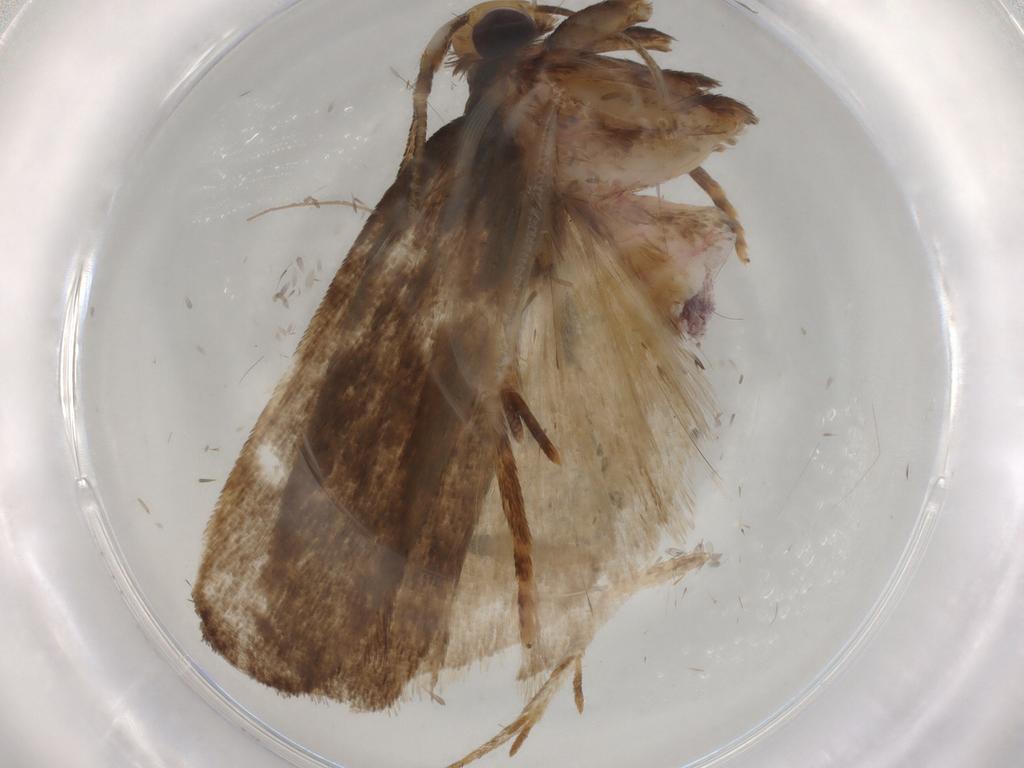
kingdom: Animalia
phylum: Arthropoda
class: Insecta
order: Lepidoptera
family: Autostichidae
